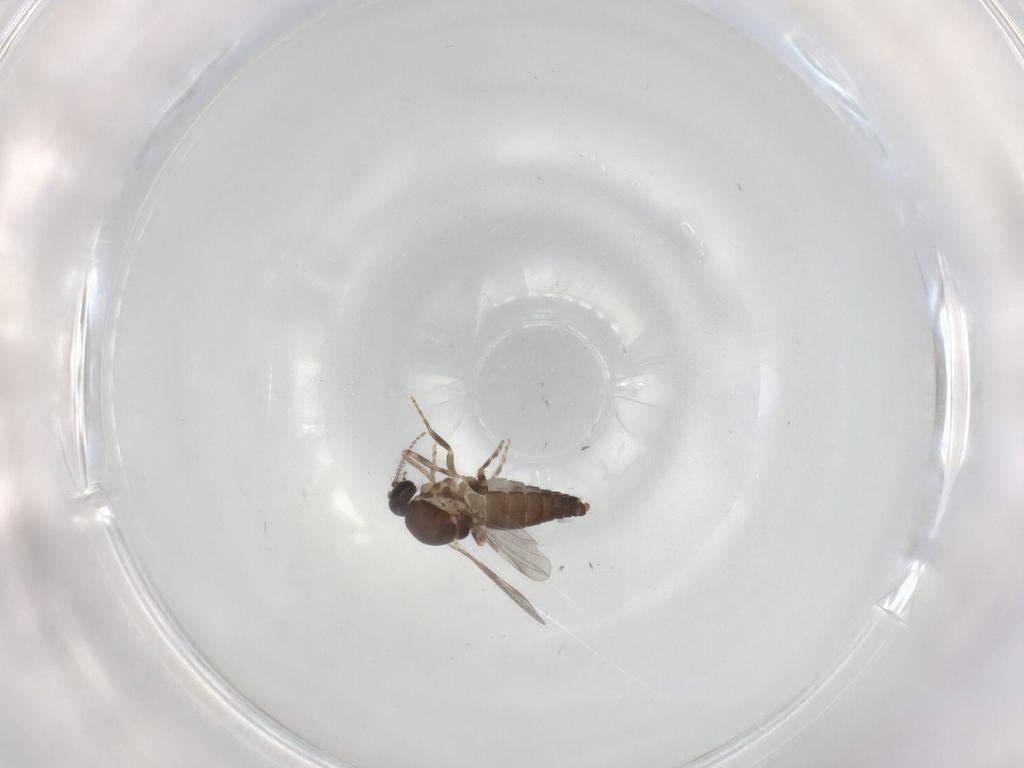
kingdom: Animalia
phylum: Arthropoda
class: Insecta
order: Diptera
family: Ceratopogonidae
